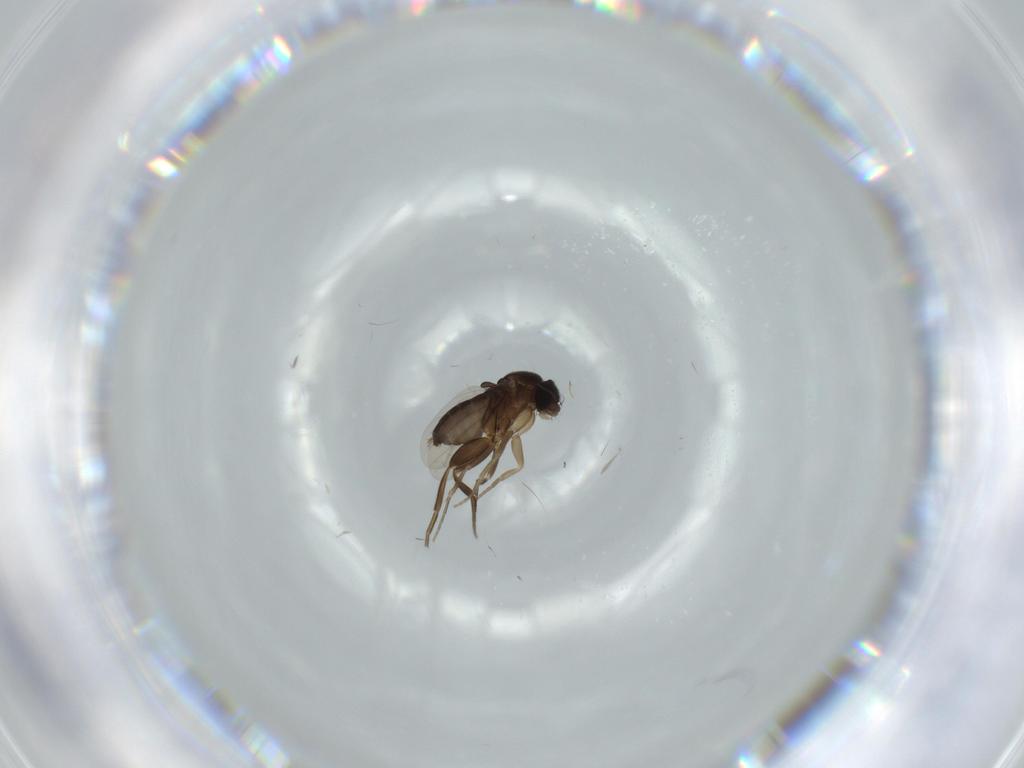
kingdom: Animalia
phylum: Arthropoda
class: Insecta
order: Diptera
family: Phoridae
